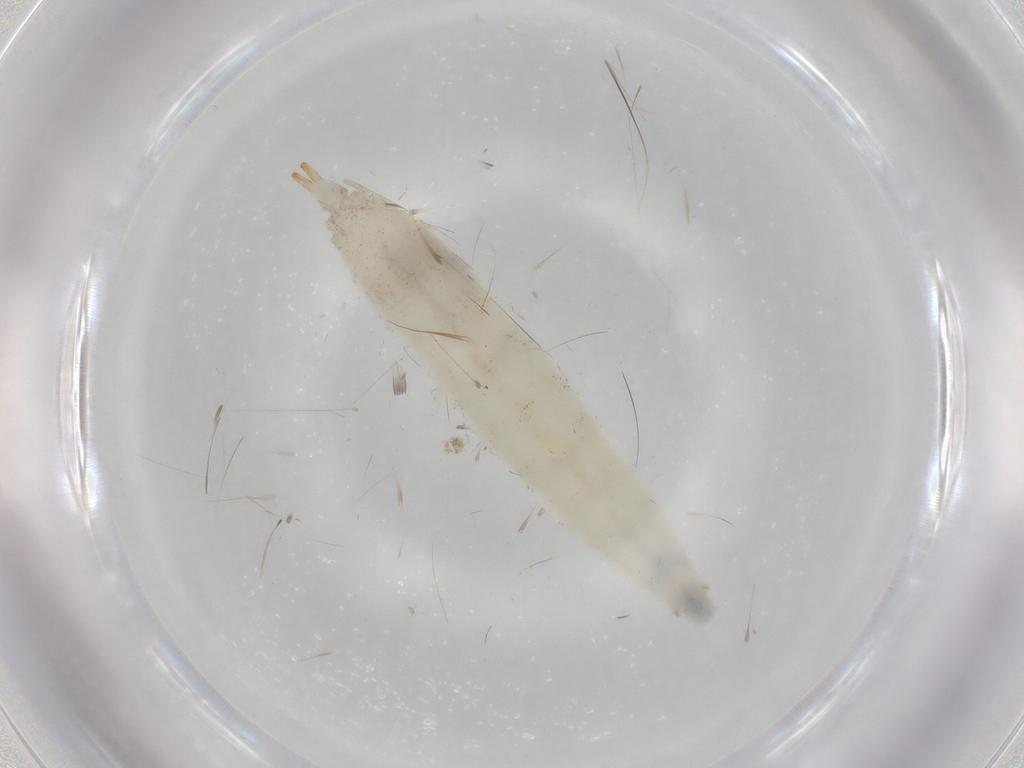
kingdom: Animalia
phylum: Arthropoda
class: Insecta
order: Diptera
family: Drosophilidae
